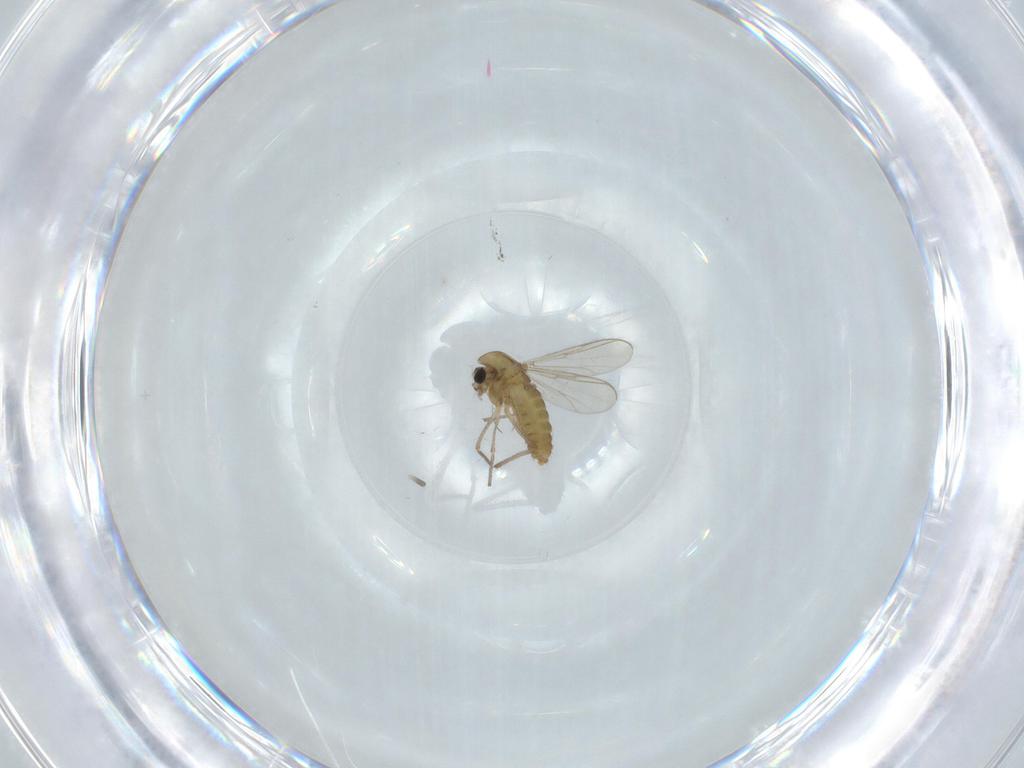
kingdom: Animalia
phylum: Arthropoda
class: Insecta
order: Diptera
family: Chironomidae
